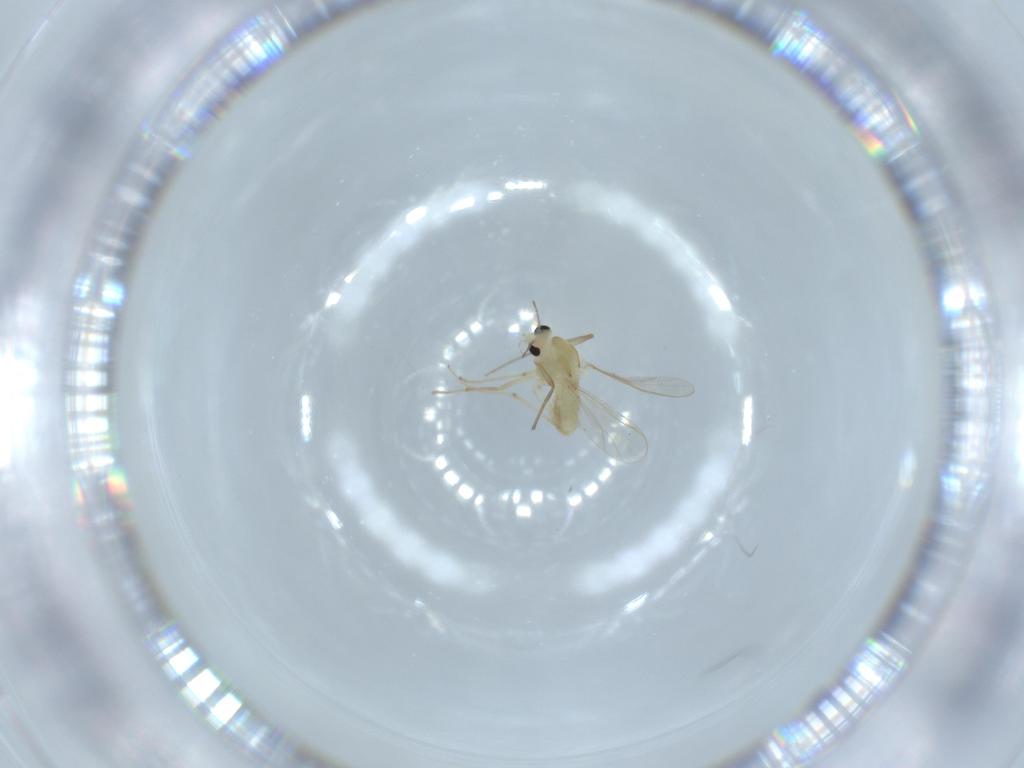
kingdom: Animalia
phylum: Arthropoda
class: Insecta
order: Diptera
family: Chironomidae
